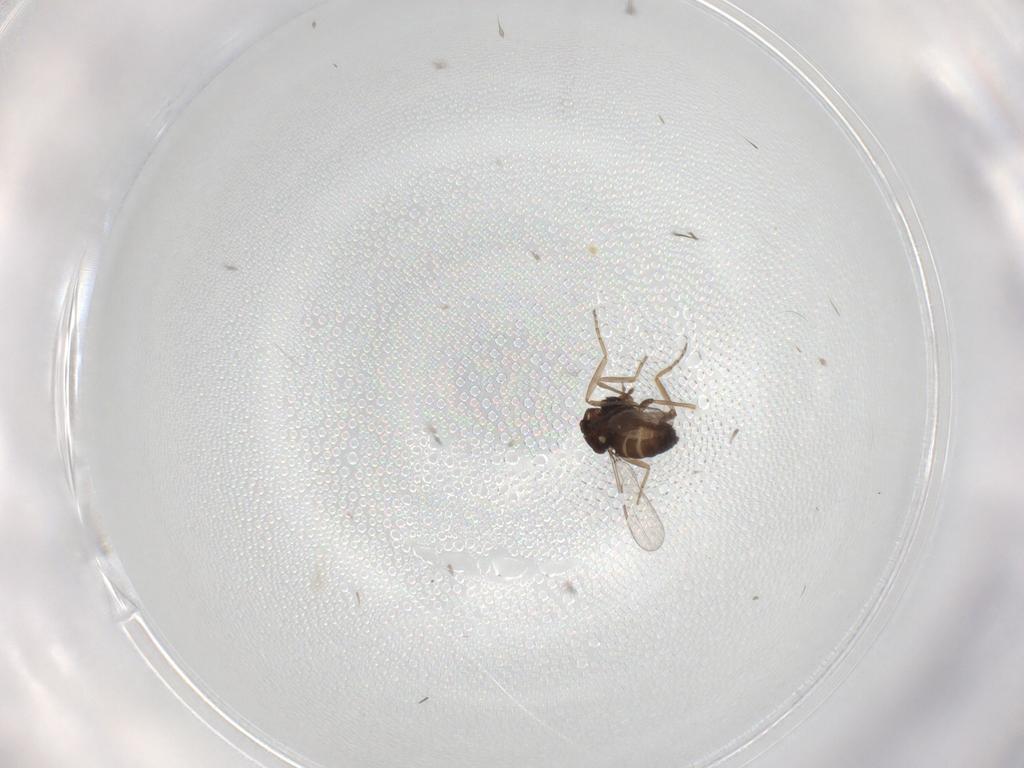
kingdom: Animalia
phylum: Arthropoda
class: Insecta
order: Diptera
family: Ceratopogonidae
